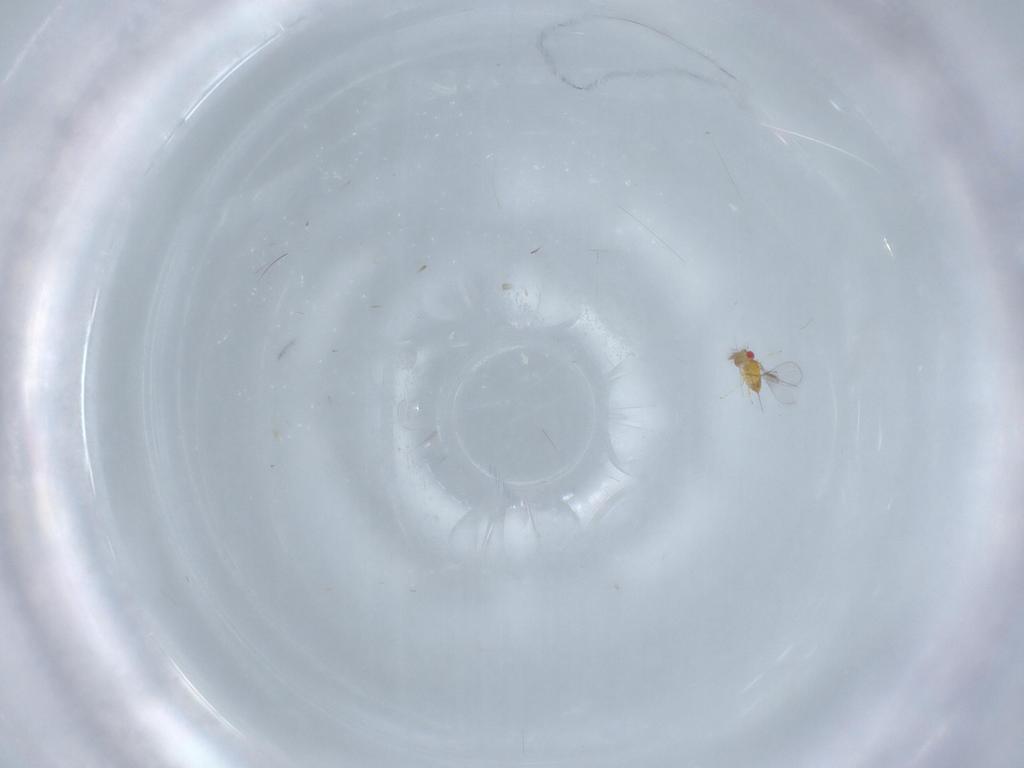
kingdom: Animalia
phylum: Arthropoda
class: Insecta
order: Hymenoptera
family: Trichogrammatidae
